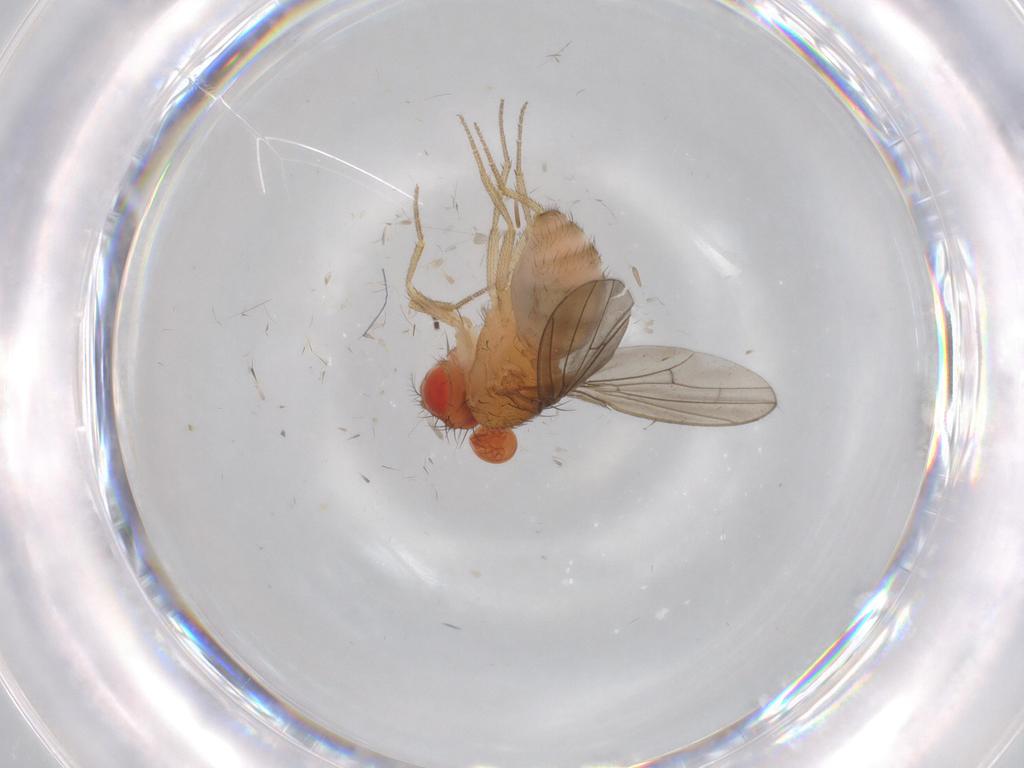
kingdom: Animalia
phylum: Arthropoda
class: Insecta
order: Diptera
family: Drosophilidae
